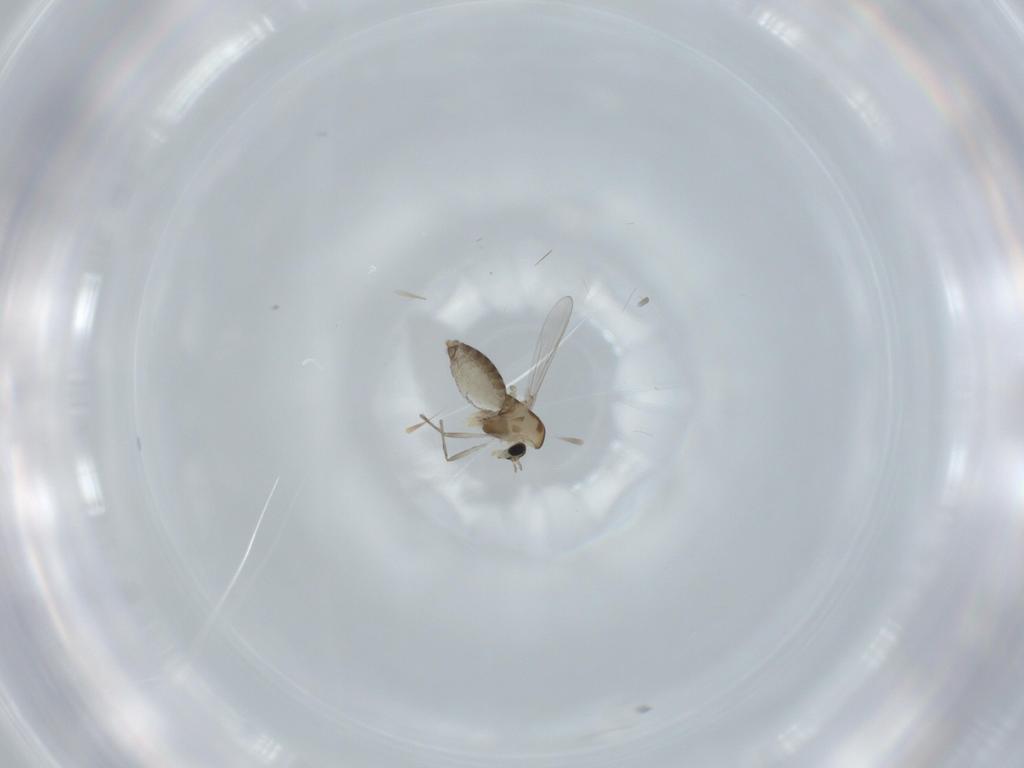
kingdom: Animalia
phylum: Arthropoda
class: Insecta
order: Diptera
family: Chironomidae
